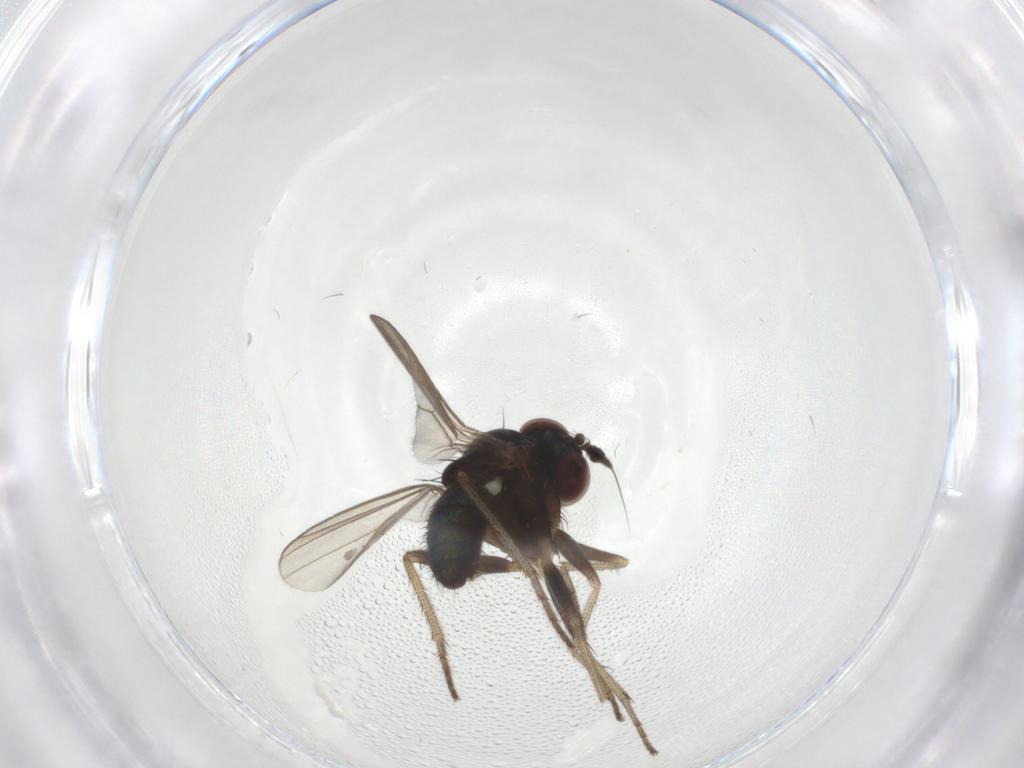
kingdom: Animalia
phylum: Arthropoda
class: Insecta
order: Diptera
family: Dolichopodidae
